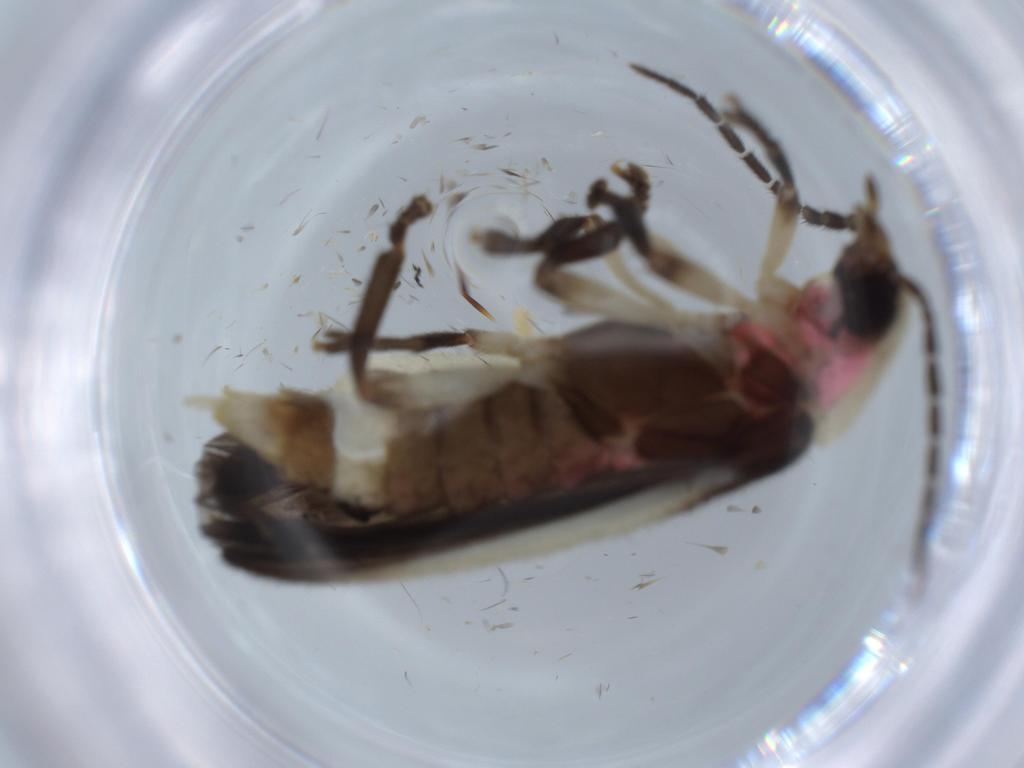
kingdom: Animalia
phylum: Arthropoda
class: Insecta
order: Coleoptera
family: Lampyridae
